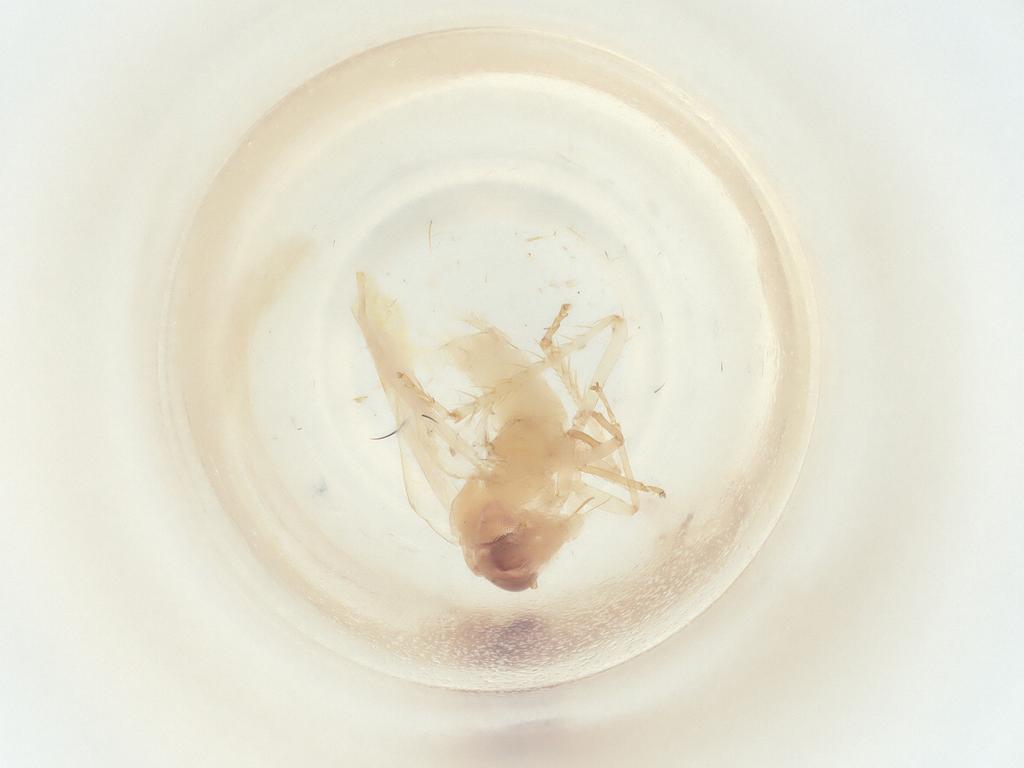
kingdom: Animalia
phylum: Arthropoda
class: Insecta
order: Hemiptera
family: Cicadellidae
